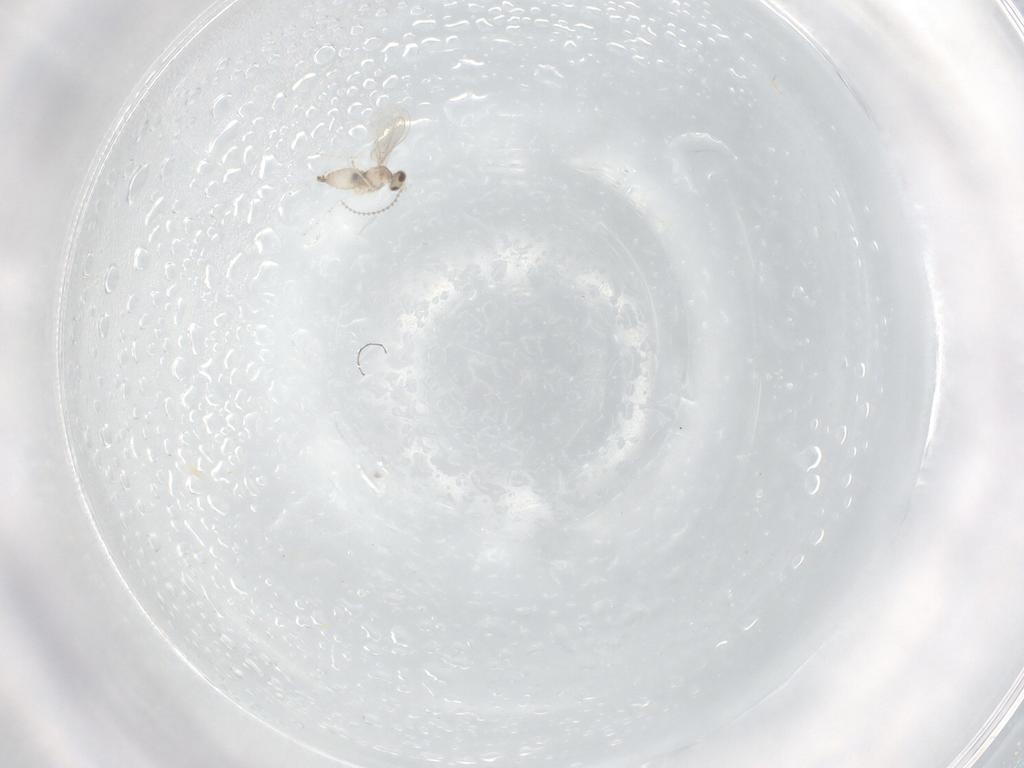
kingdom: Animalia
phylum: Arthropoda
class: Insecta
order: Diptera
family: Cecidomyiidae
